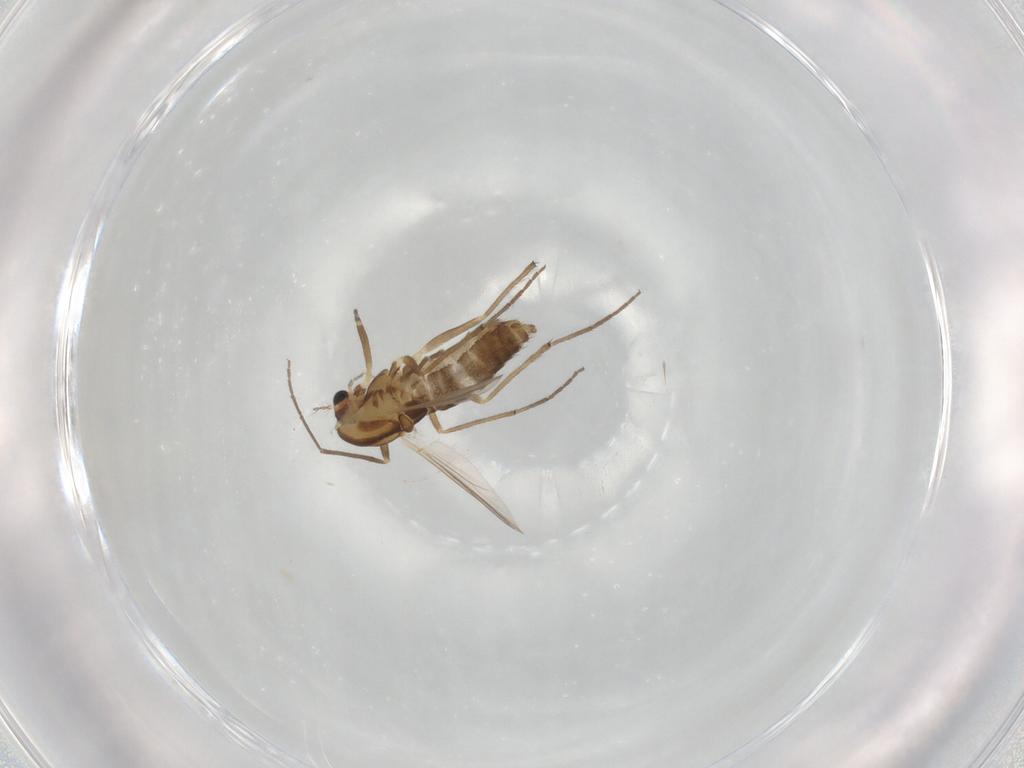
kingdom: Animalia
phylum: Arthropoda
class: Insecta
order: Diptera
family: Chironomidae
